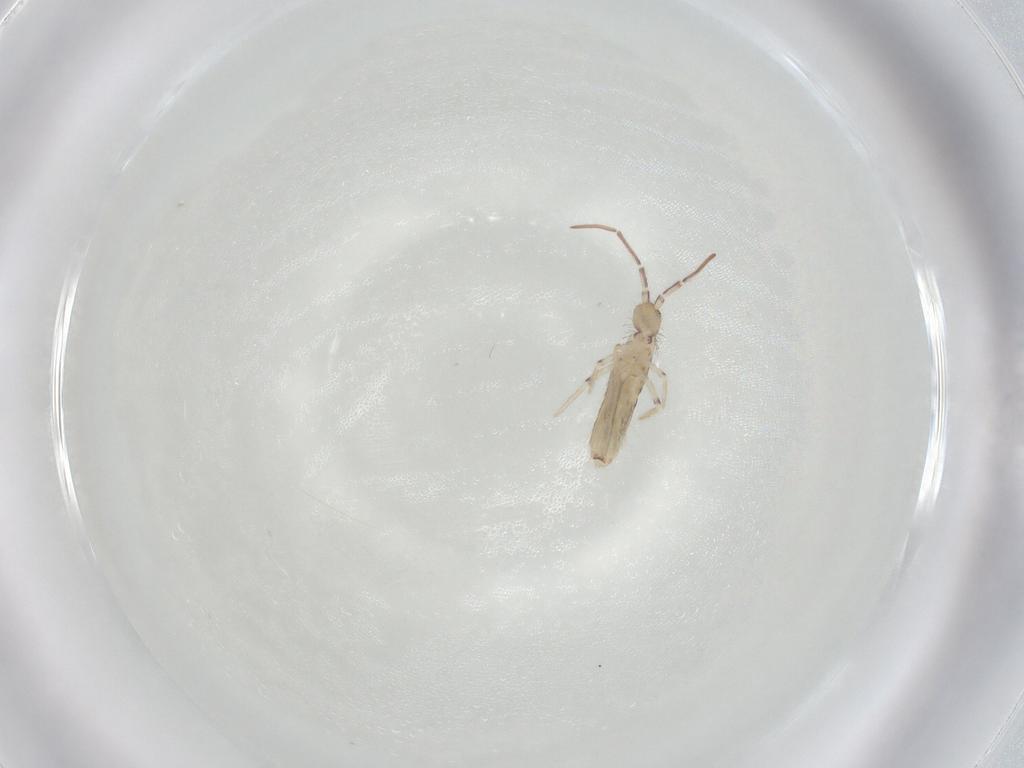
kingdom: Animalia
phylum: Arthropoda
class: Collembola
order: Entomobryomorpha
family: Entomobryidae
